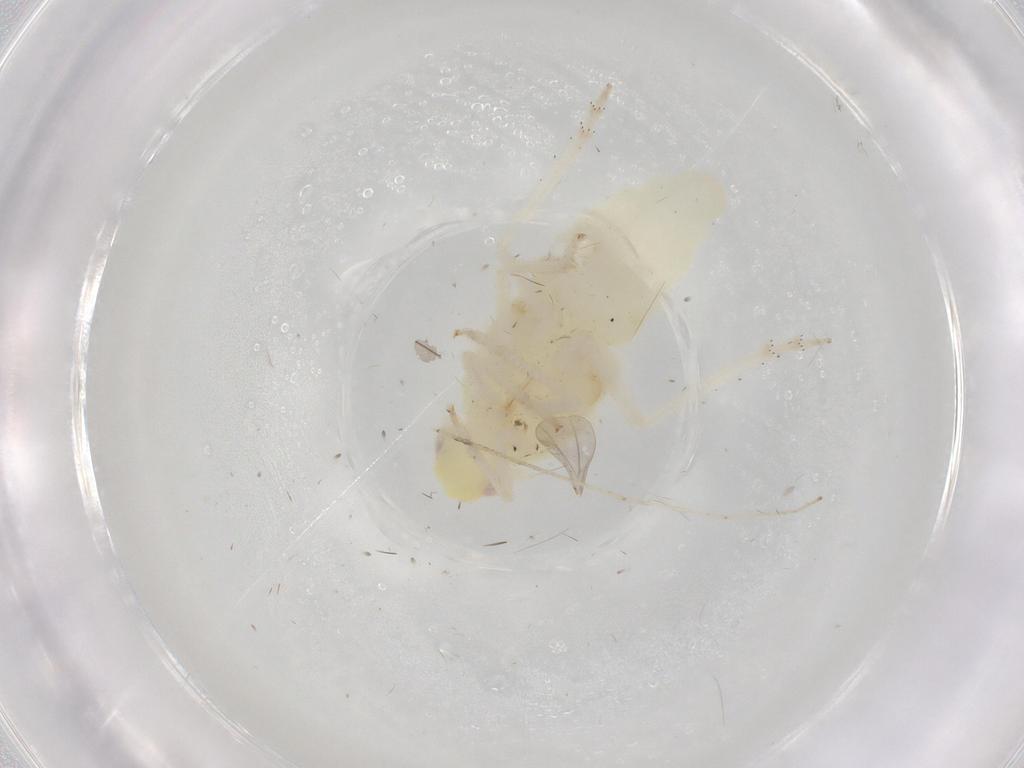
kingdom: Animalia
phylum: Arthropoda
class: Insecta
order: Hemiptera
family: Tropiduchidae
